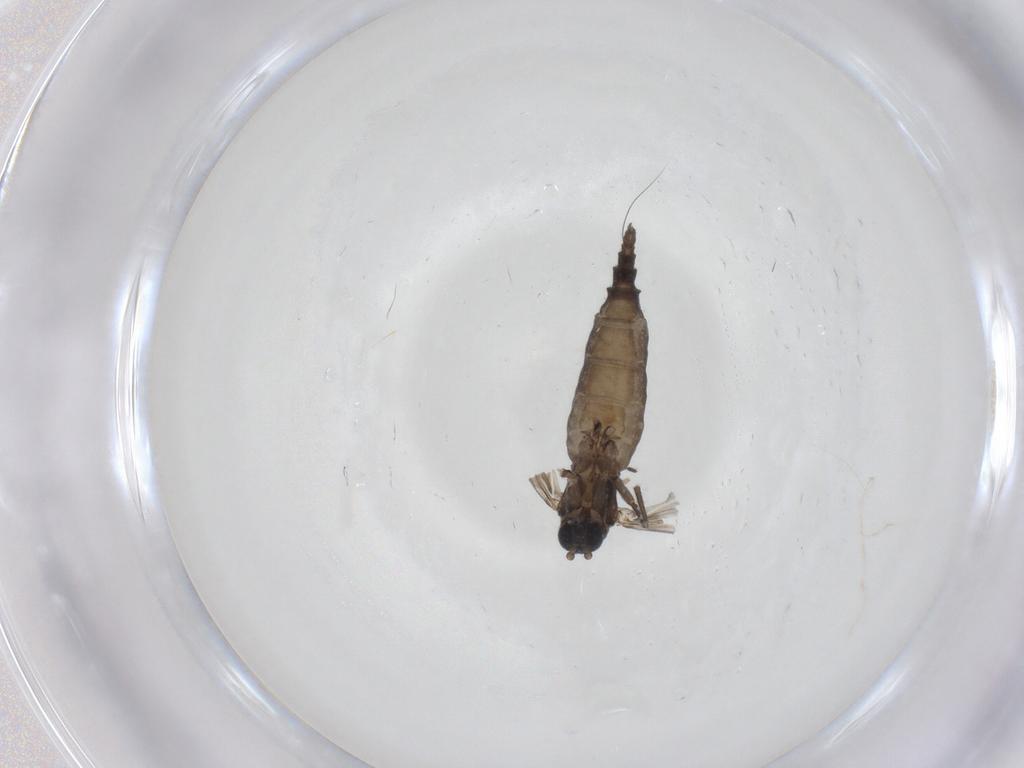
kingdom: Animalia
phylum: Arthropoda
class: Insecta
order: Diptera
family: Sciaridae
